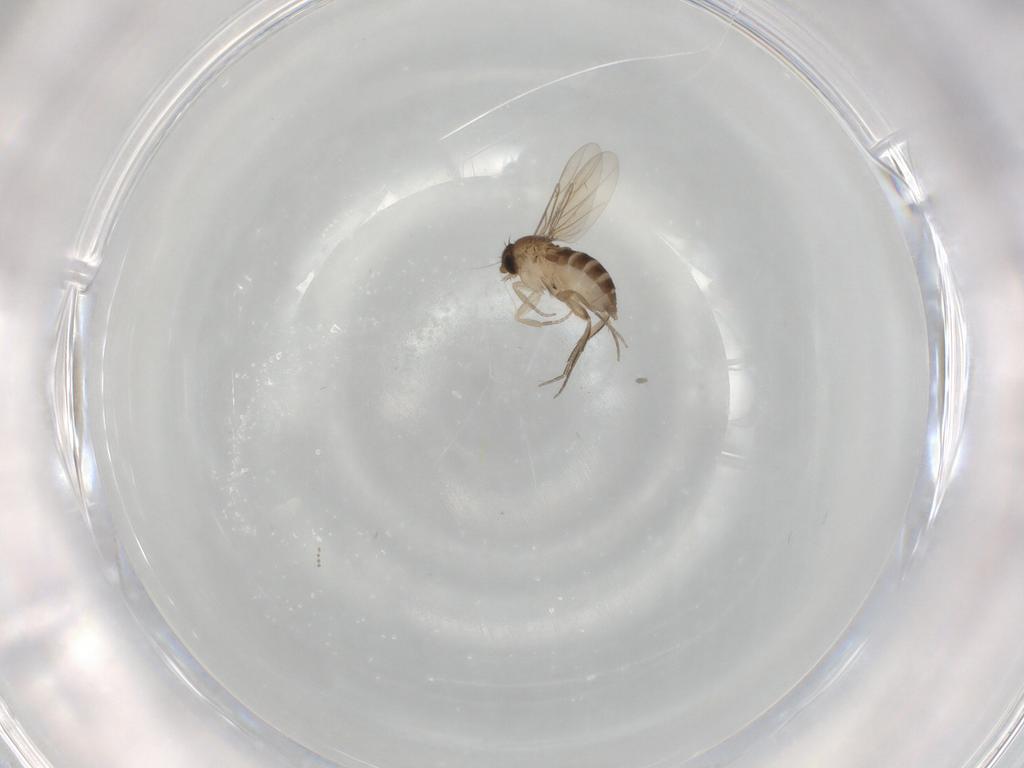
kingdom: Animalia
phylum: Arthropoda
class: Insecta
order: Diptera
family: Phoridae
